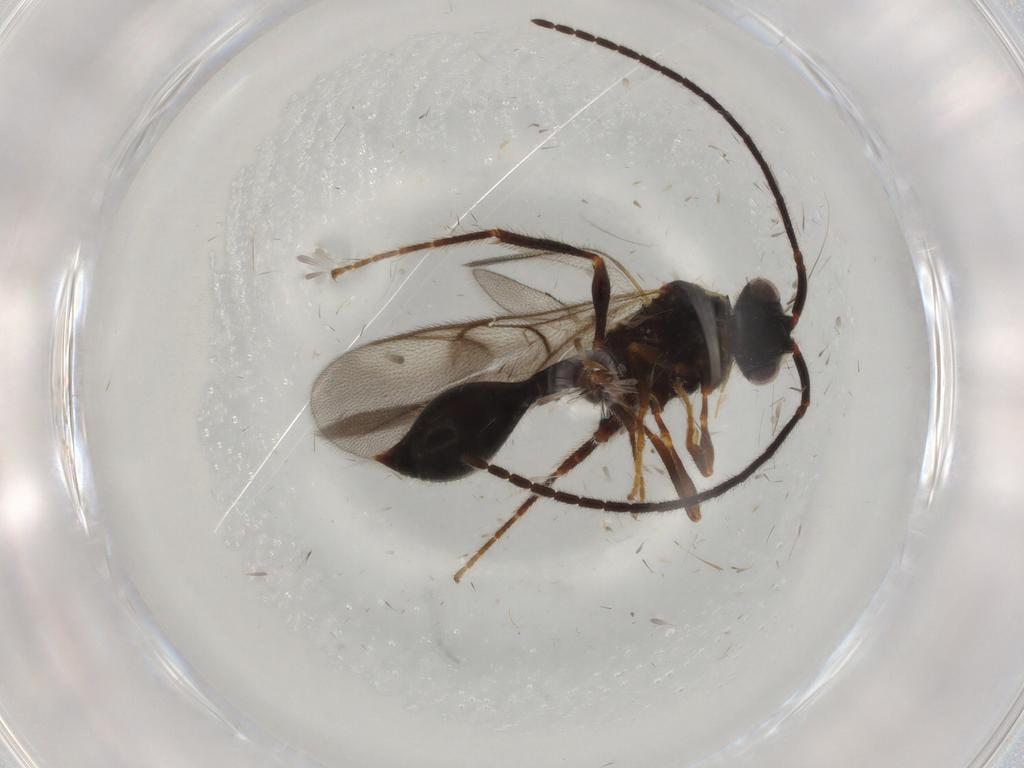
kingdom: Animalia
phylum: Arthropoda
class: Insecta
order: Hymenoptera
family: Diapriidae
